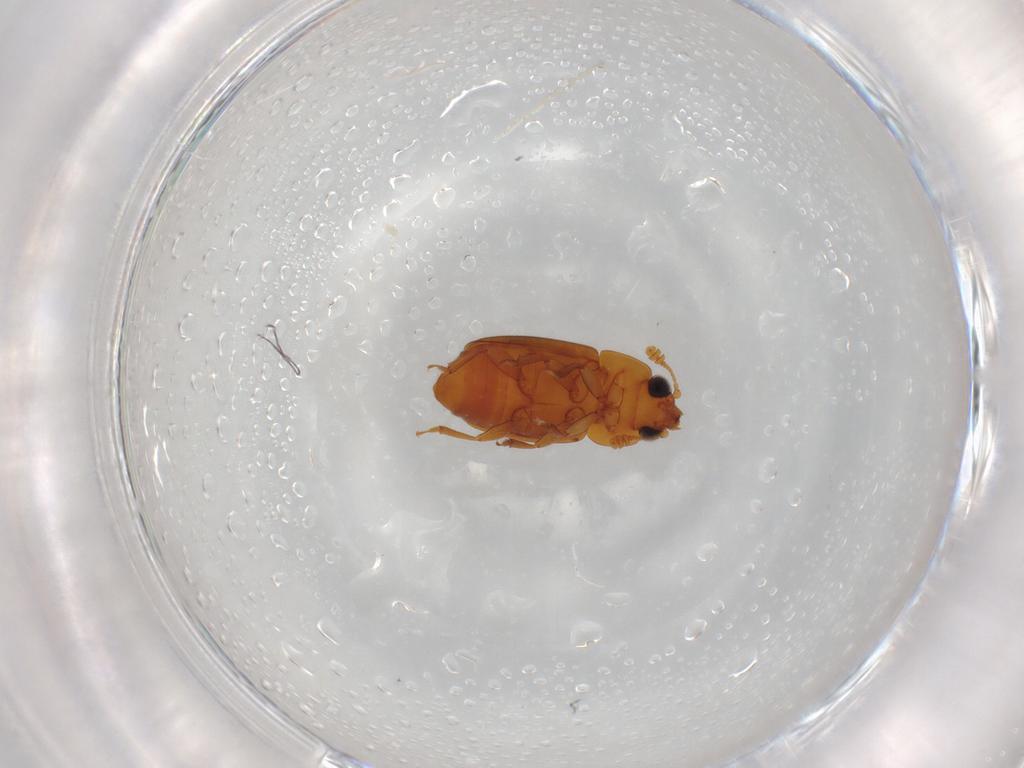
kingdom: Animalia
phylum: Arthropoda
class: Insecta
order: Coleoptera
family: Nitidulidae
